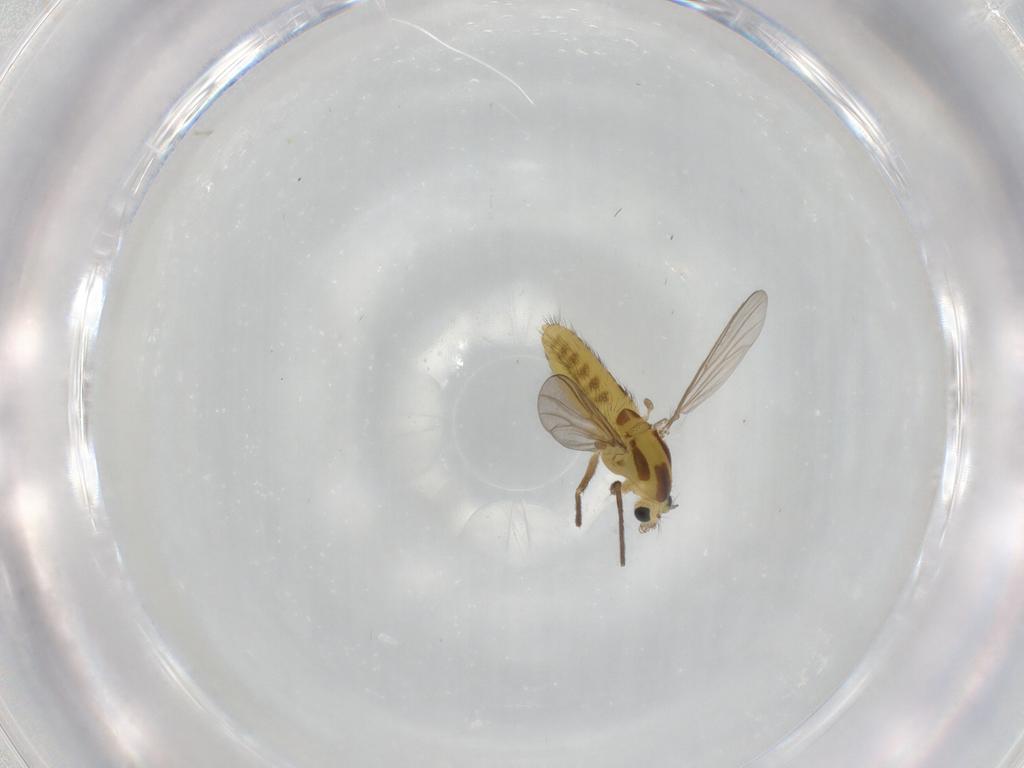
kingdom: Animalia
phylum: Arthropoda
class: Insecta
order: Diptera
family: Chironomidae
